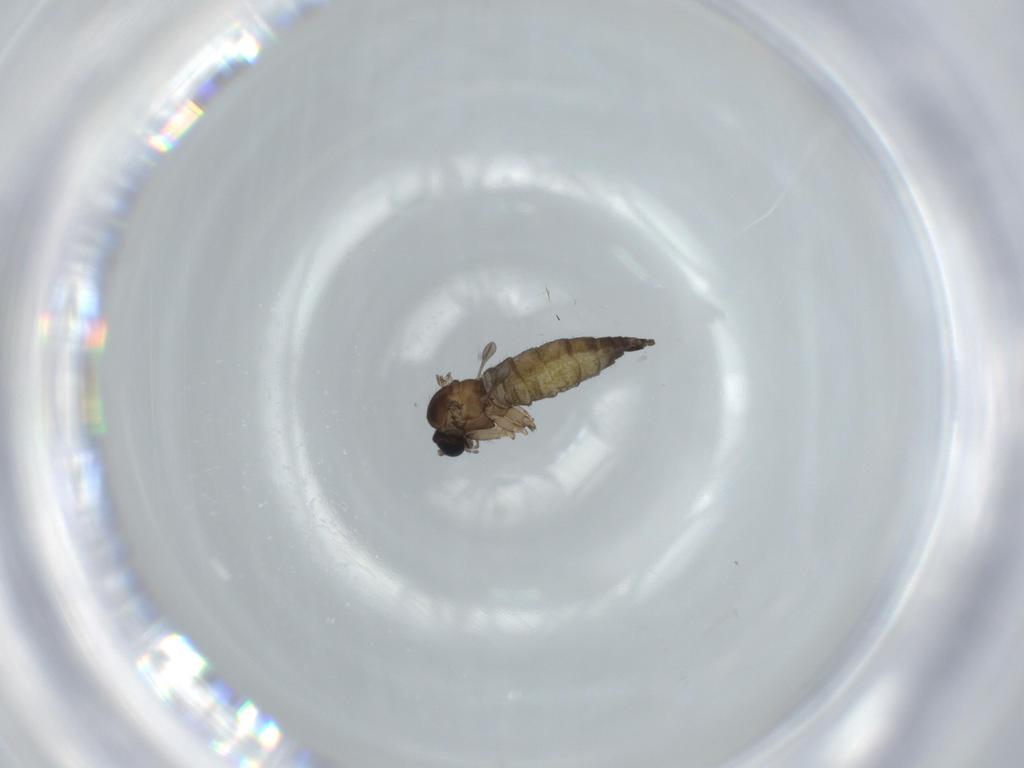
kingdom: Animalia
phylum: Arthropoda
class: Insecta
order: Diptera
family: Sciaridae
